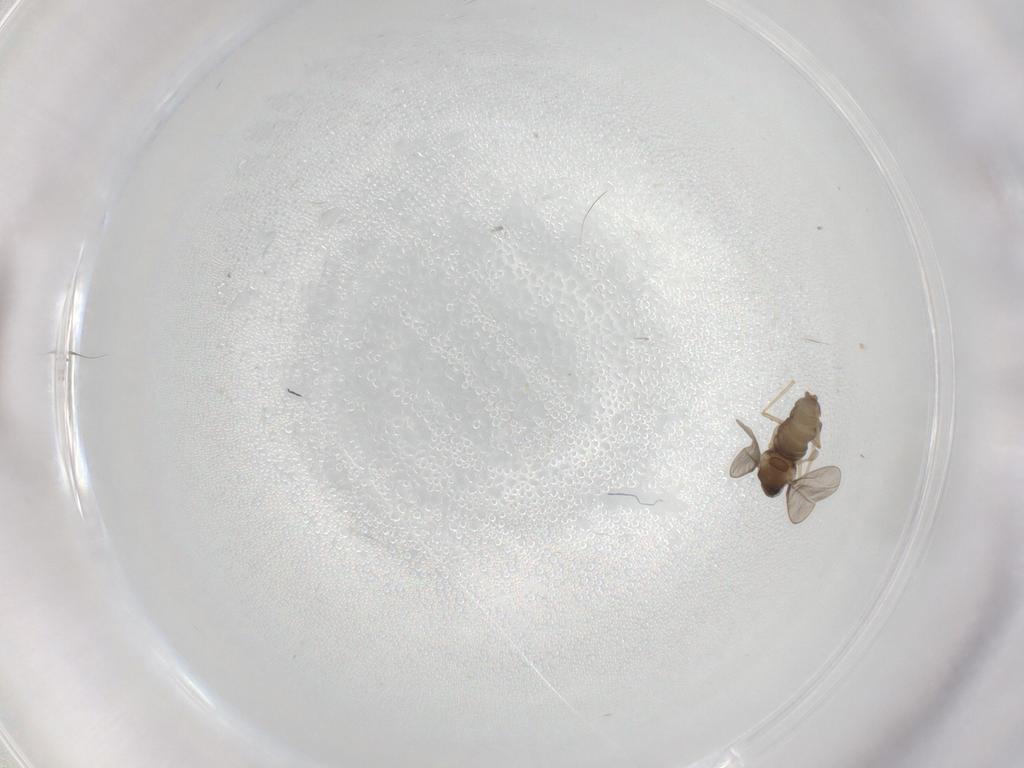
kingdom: Animalia
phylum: Arthropoda
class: Insecta
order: Diptera
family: Cecidomyiidae
